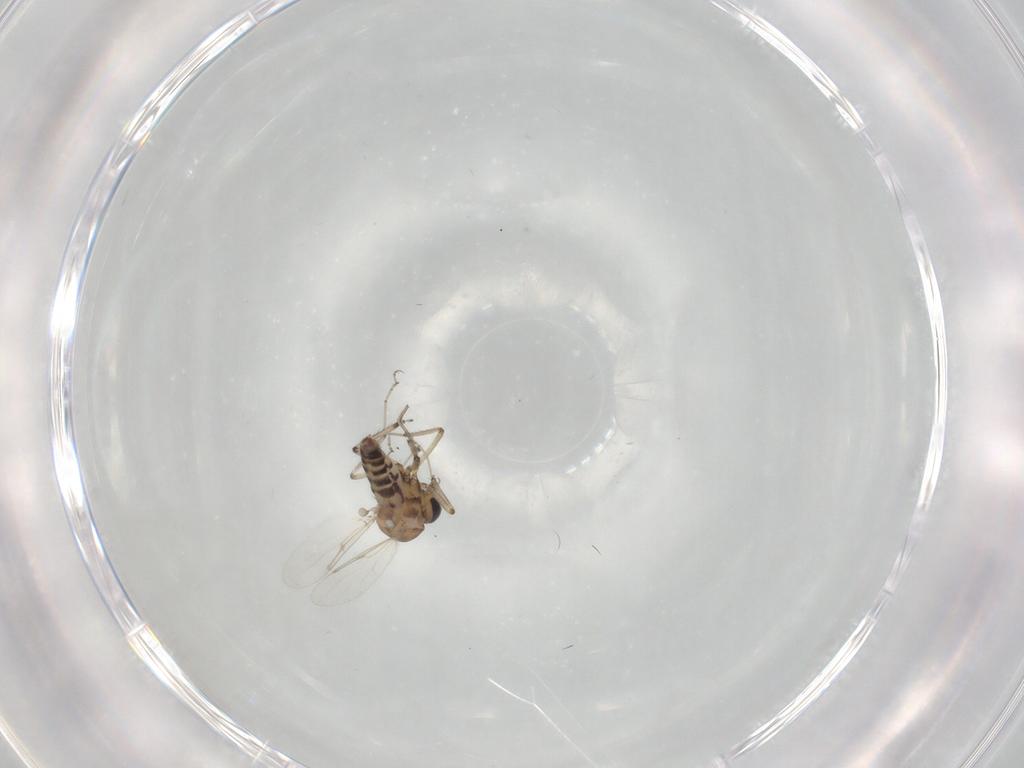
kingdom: Animalia
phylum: Arthropoda
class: Insecta
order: Diptera
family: Ceratopogonidae
